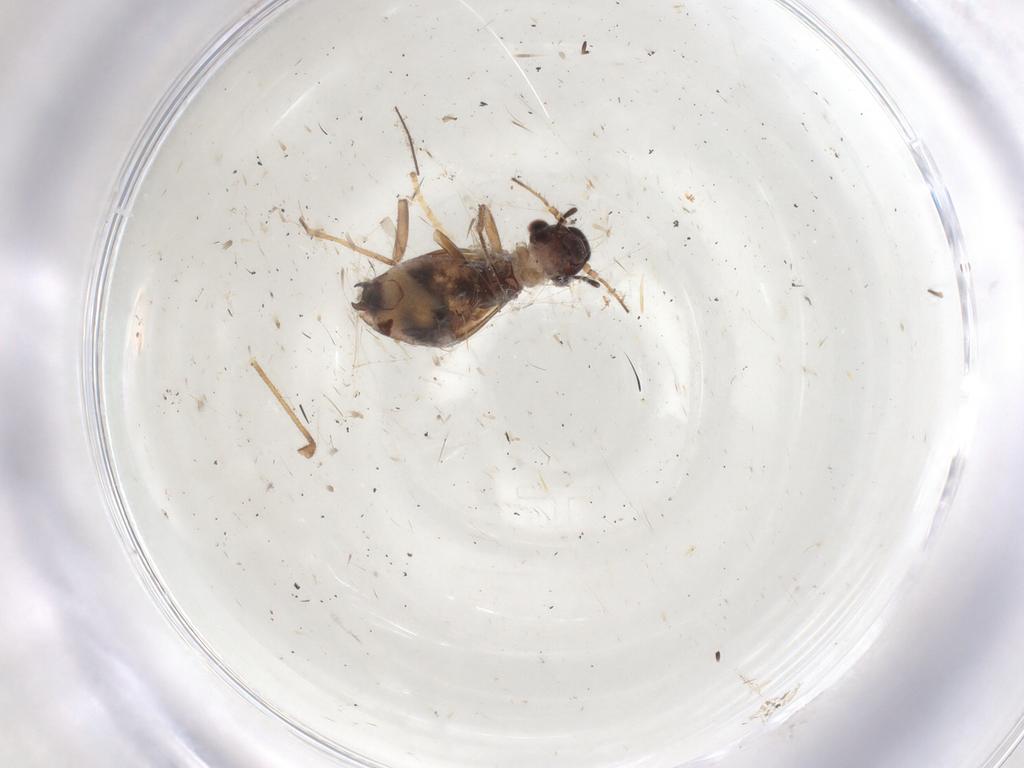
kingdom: Animalia
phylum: Arthropoda
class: Insecta
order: Psocodea
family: Elipsocidae
